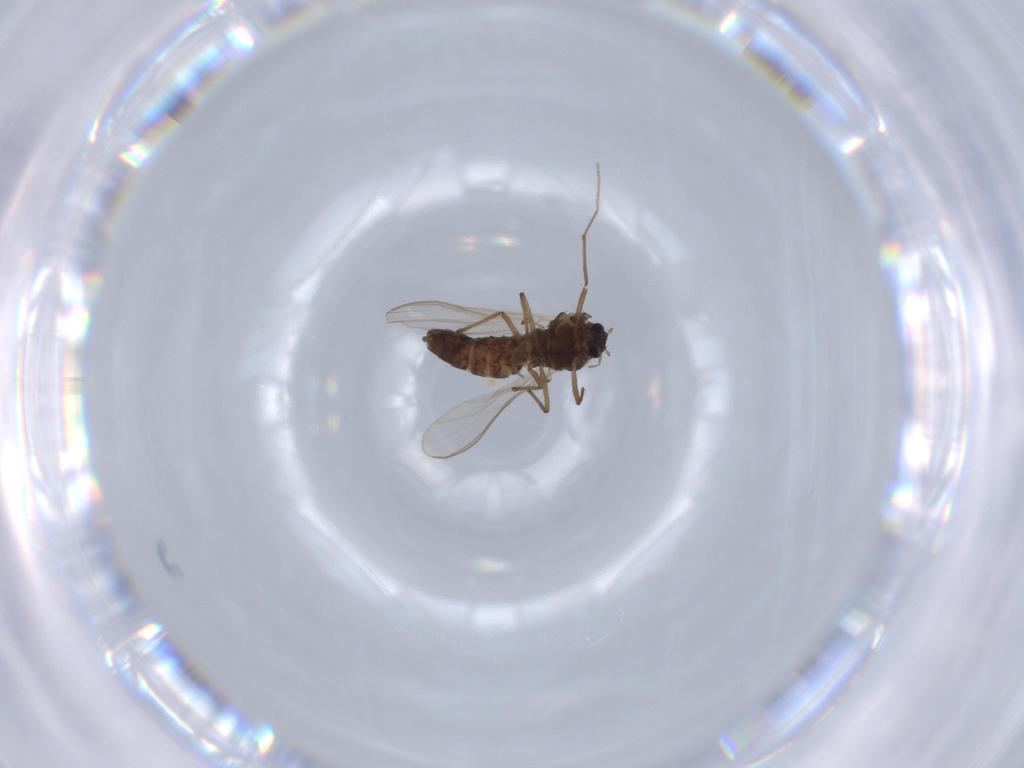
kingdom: Animalia
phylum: Arthropoda
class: Insecta
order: Diptera
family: Chironomidae
